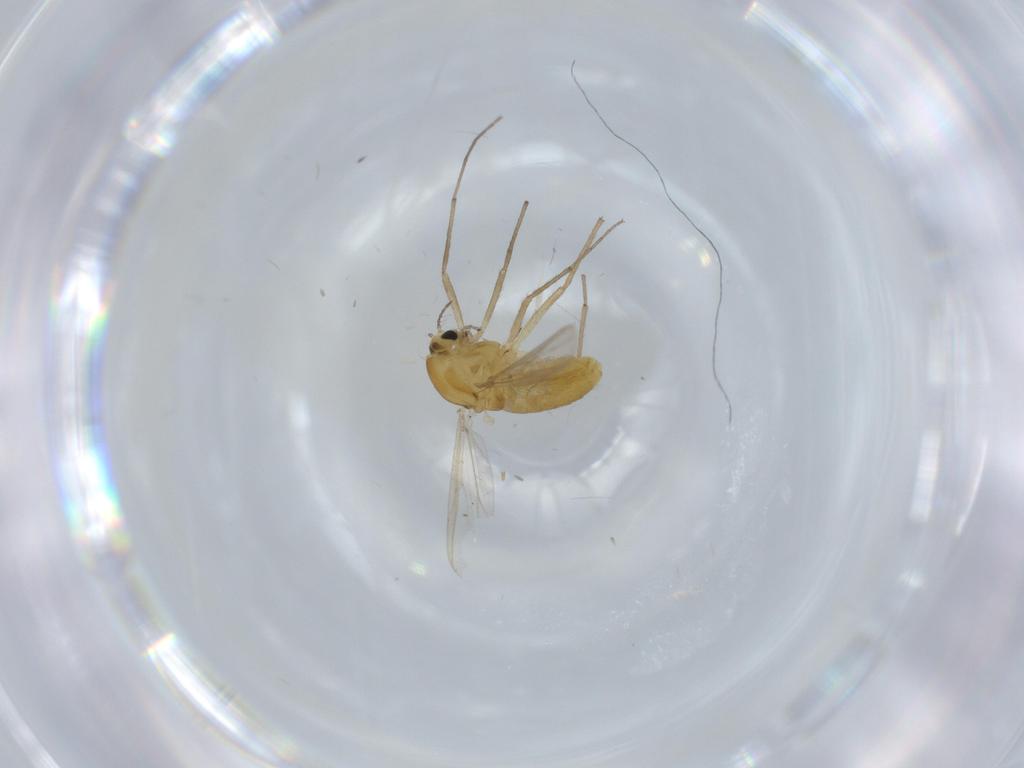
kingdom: Animalia
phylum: Arthropoda
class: Insecta
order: Diptera
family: Chironomidae
